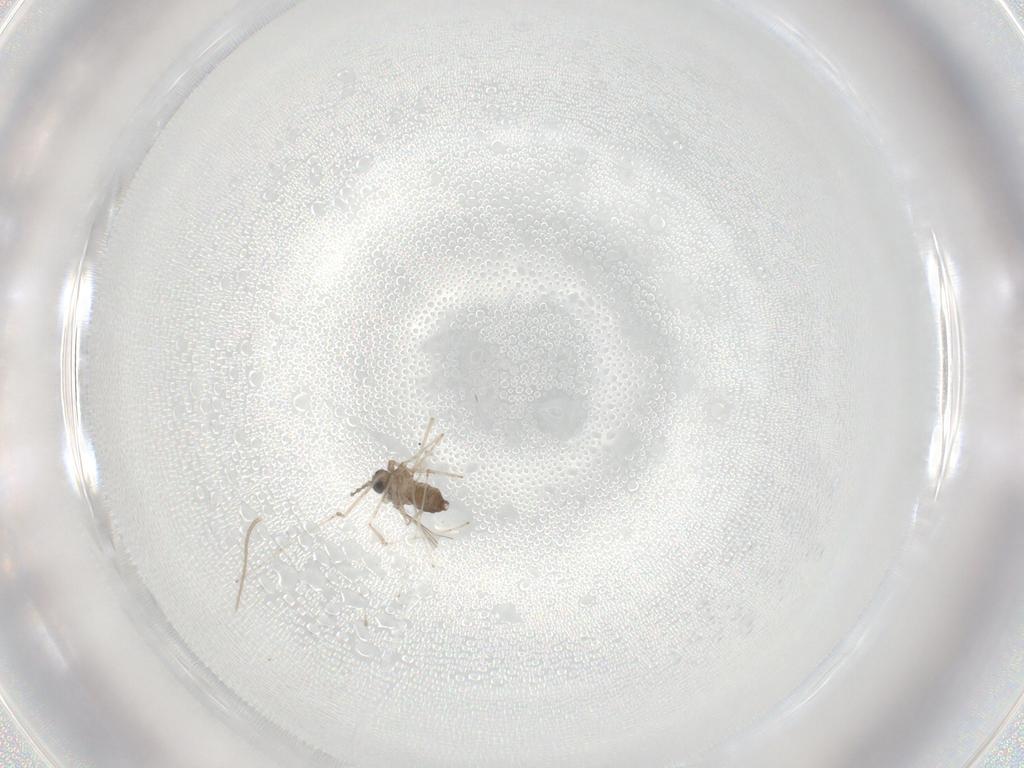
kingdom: Animalia
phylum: Arthropoda
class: Insecta
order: Diptera
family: Cecidomyiidae
